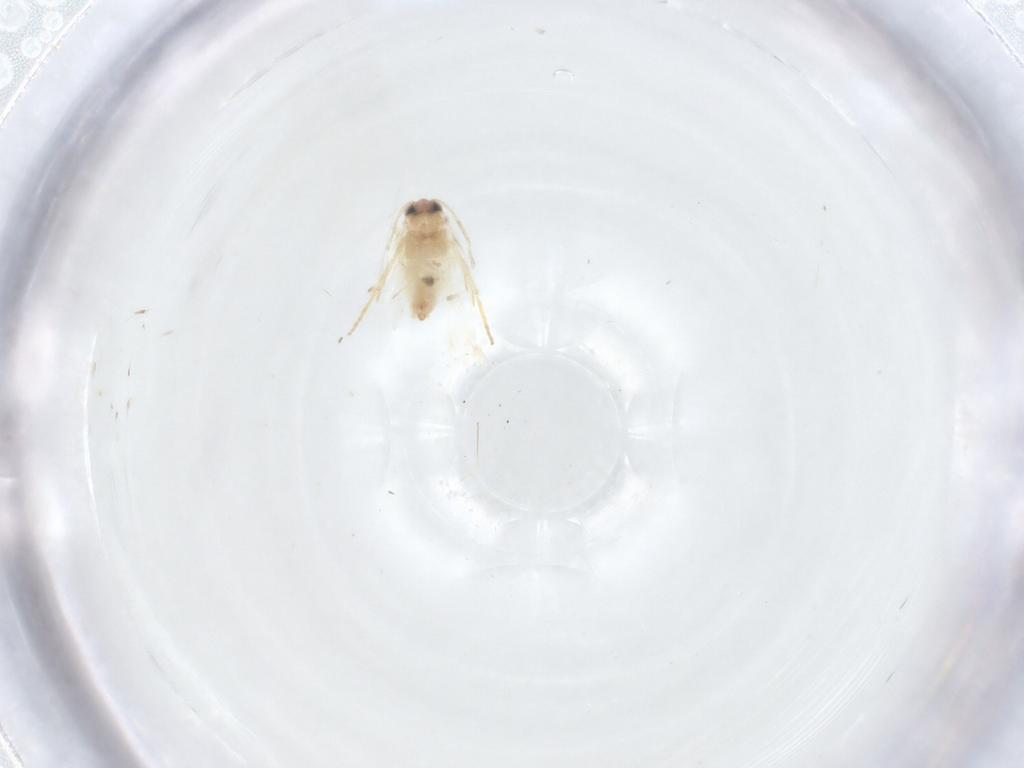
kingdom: Animalia
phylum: Arthropoda
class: Insecta
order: Lepidoptera
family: Crambidae
